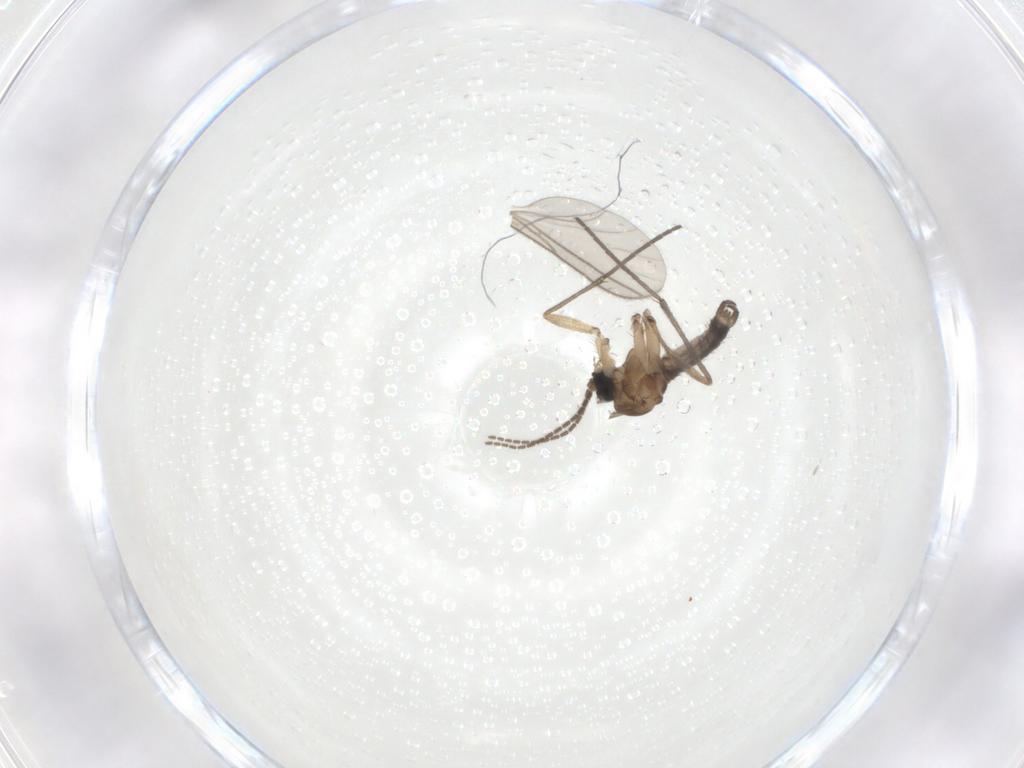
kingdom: Animalia
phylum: Arthropoda
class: Insecta
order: Diptera
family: Sciaridae
